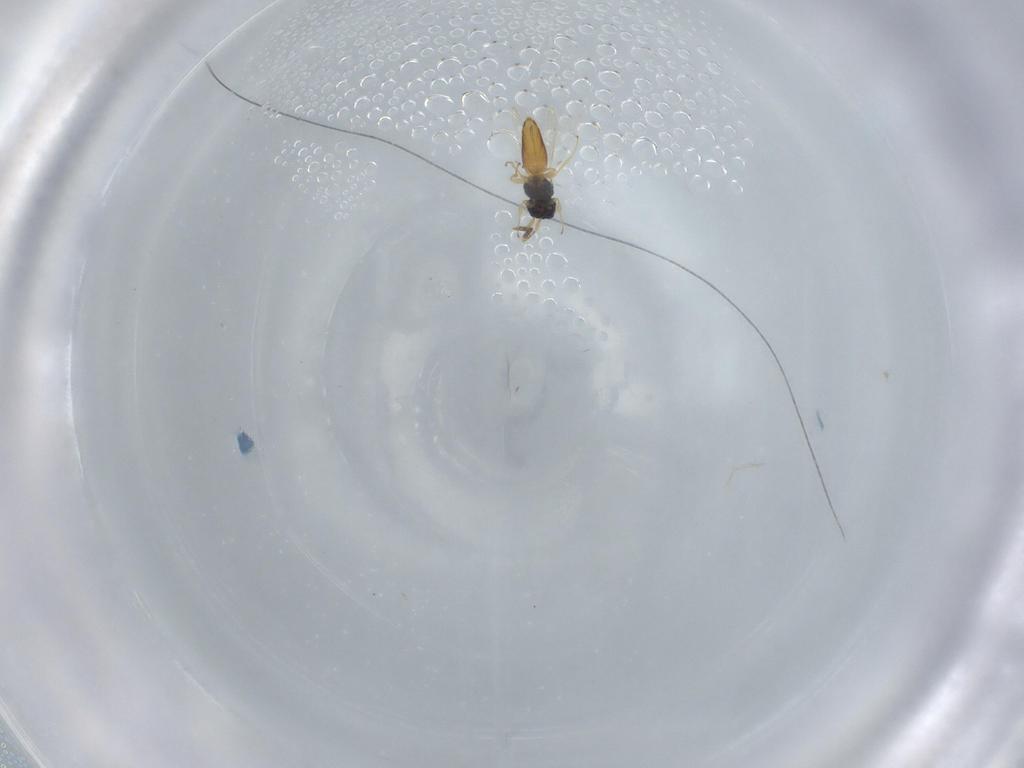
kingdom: Animalia
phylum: Arthropoda
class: Insecta
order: Hymenoptera
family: Scelionidae
